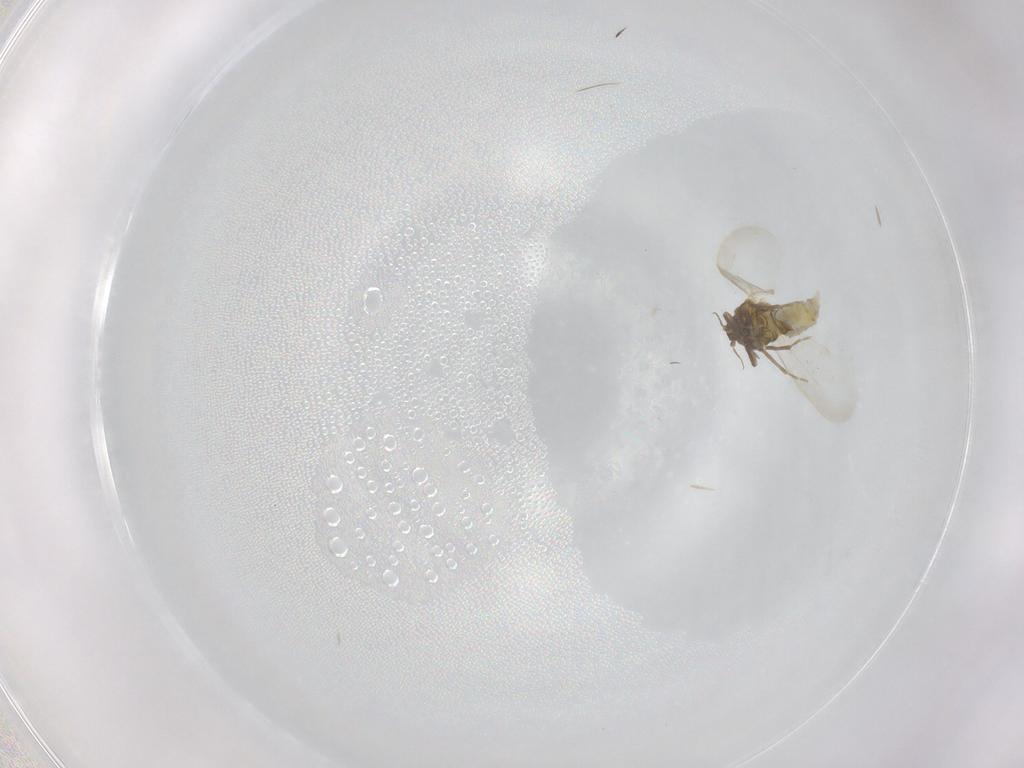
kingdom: Animalia
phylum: Arthropoda
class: Insecta
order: Hemiptera
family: Aleyrodidae
